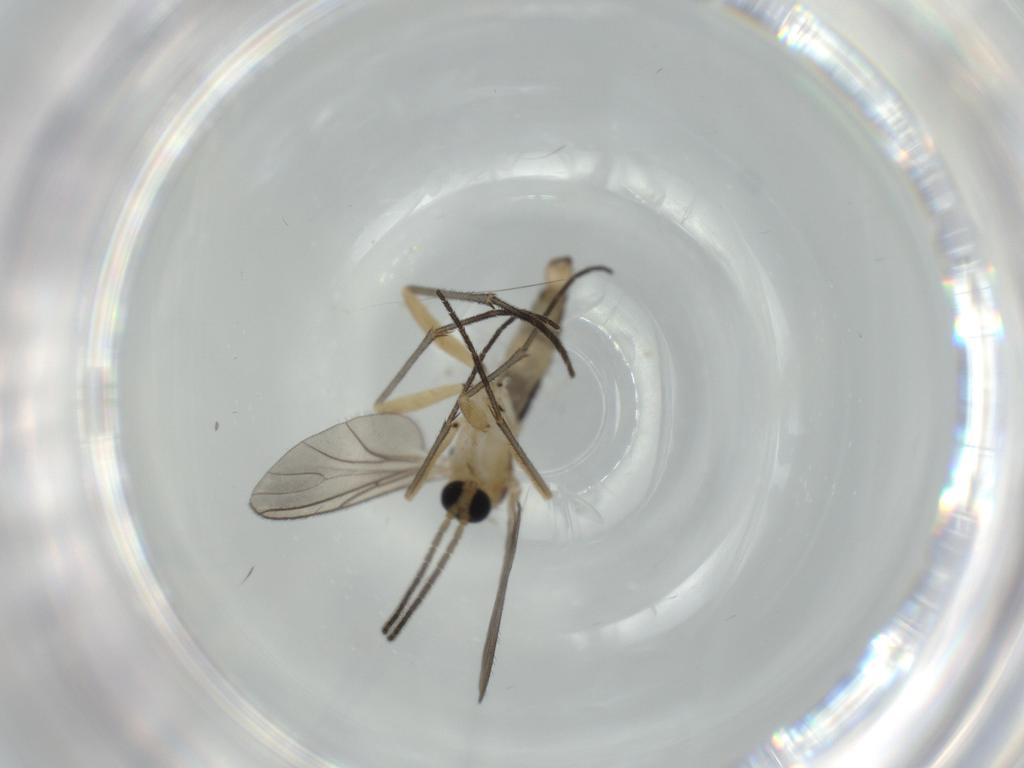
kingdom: Animalia
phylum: Arthropoda
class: Insecta
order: Diptera
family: Sciaridae
